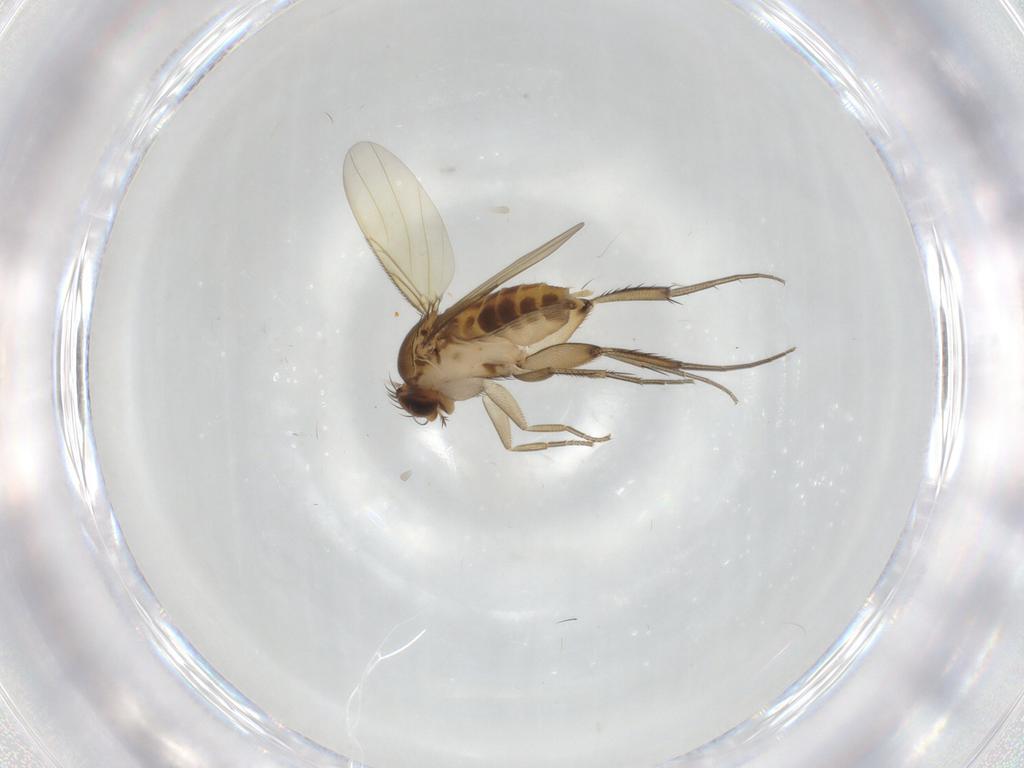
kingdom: Animalia
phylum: Arthropoda
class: Insecta
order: Diptera
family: Phoridae
